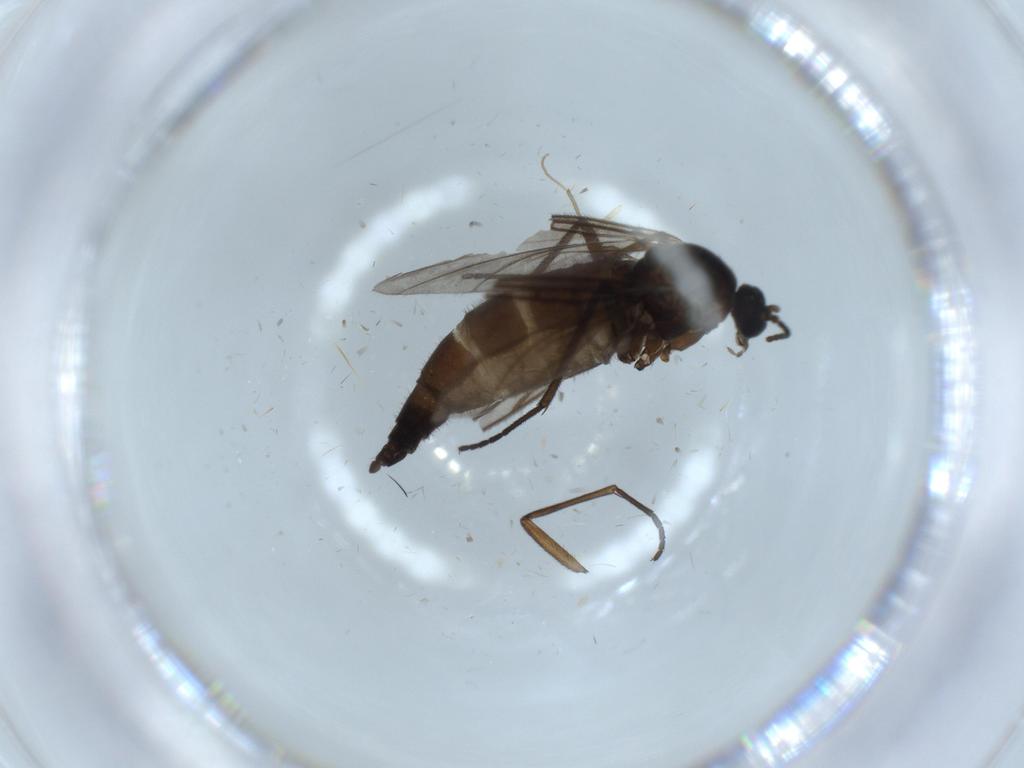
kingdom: Animalia
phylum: Arthropoda
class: Insecta
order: Diptera
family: Sciaridae
